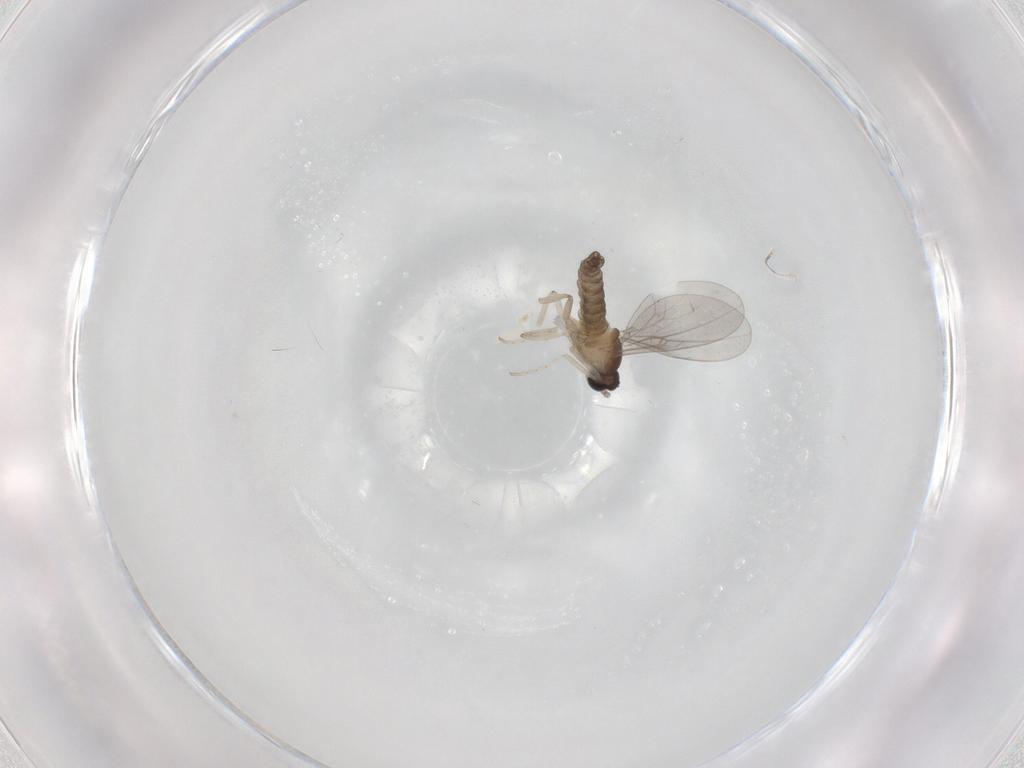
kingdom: Animalia
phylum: Arthropoda
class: Insecta
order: Diptera
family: Cecidomyiidae
